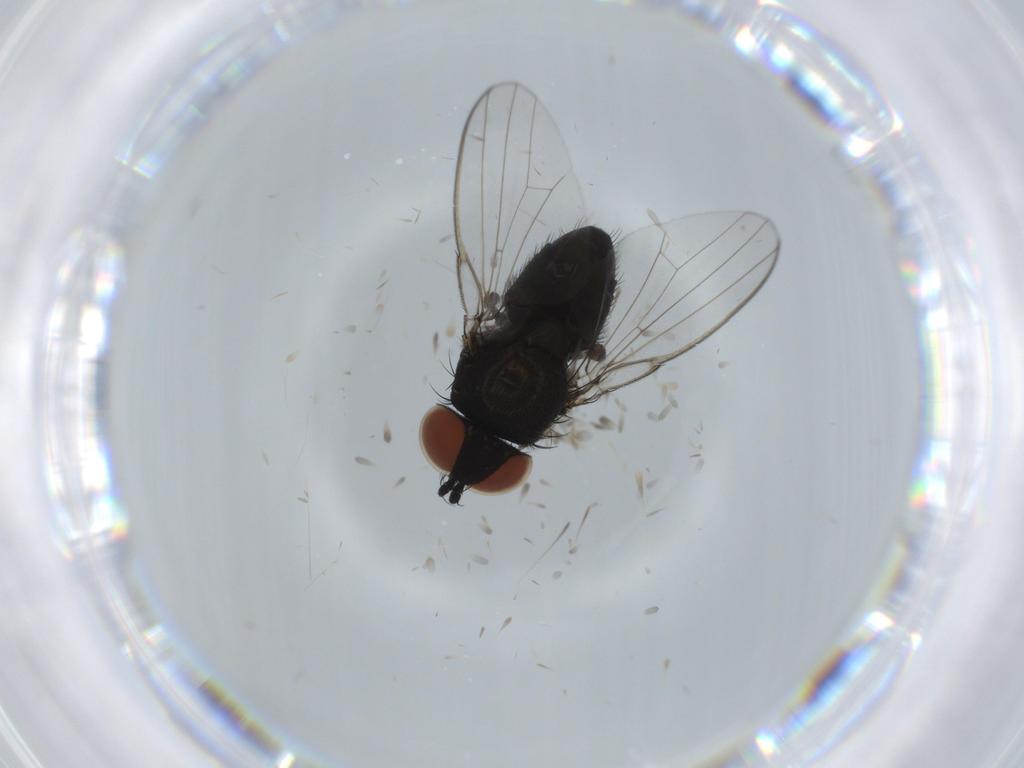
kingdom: Animalia
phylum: Arthropoda
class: Insecta
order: Diptera
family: Milichiidae
